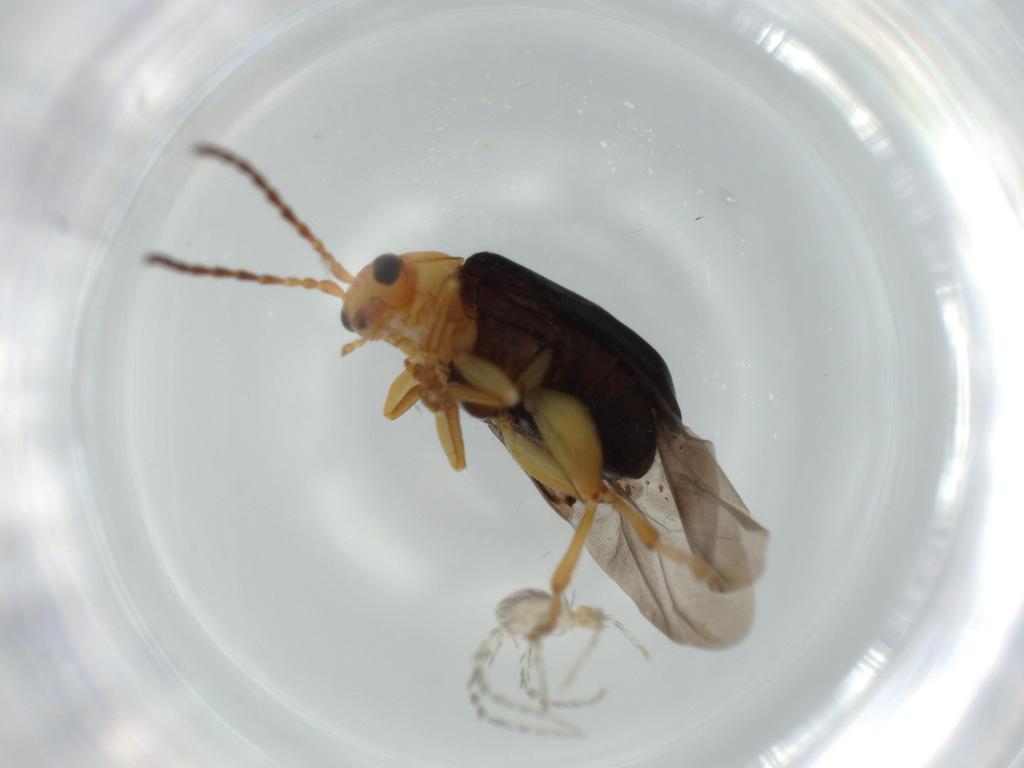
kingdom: Animalia
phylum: Arthropoda
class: Insecta
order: Coleoptera
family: Chrysomelidae
